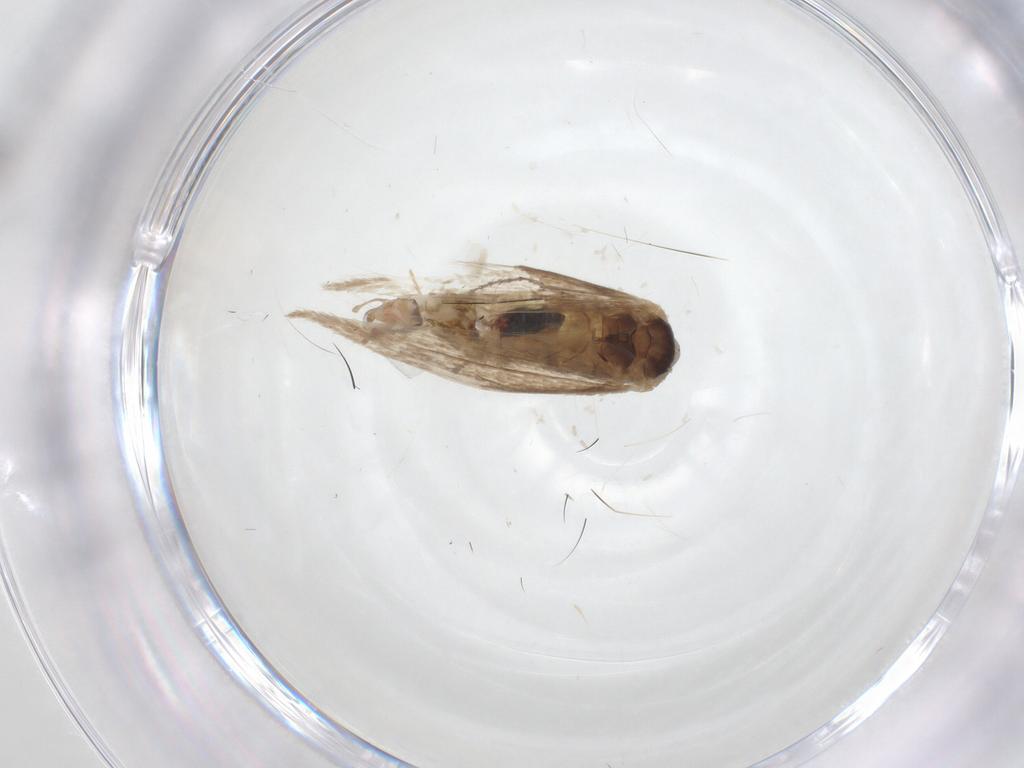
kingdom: Animalia
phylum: Arthropoda
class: Insecta
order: Lepidoptera
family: Bucculatricidae
